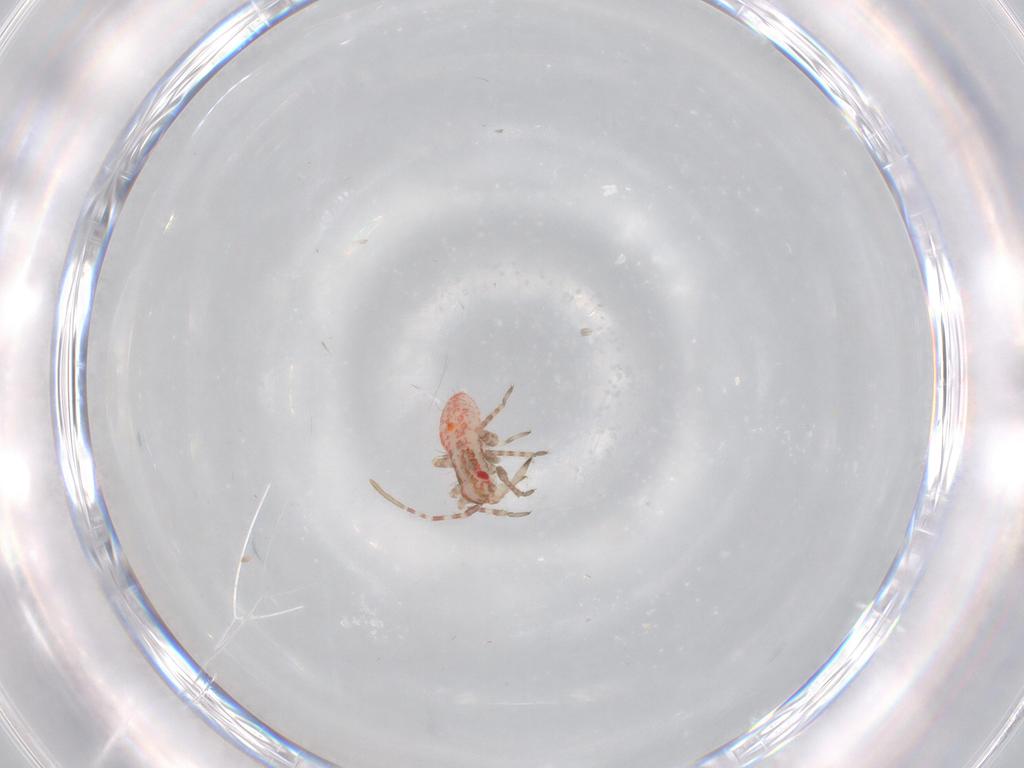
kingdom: Animalia
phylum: Arthropoda
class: Insecta
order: Hemiptera
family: Miridae
